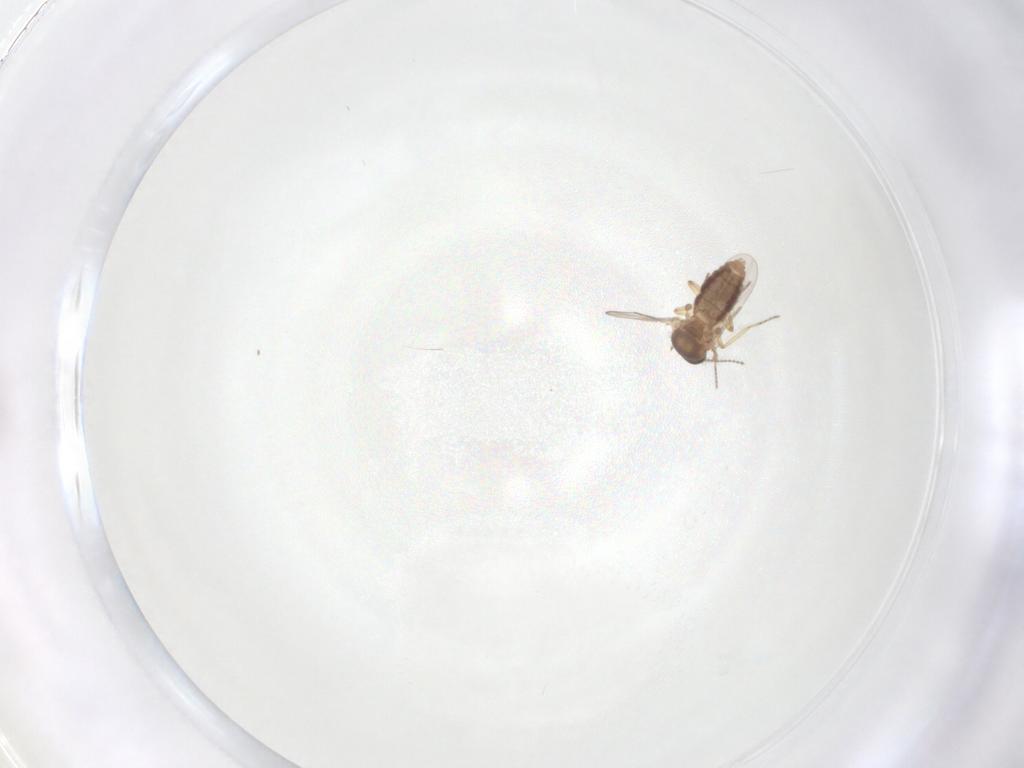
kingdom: Animalia
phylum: Arthropoda
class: Insecta
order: Diptera
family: Ceratopogonidae
